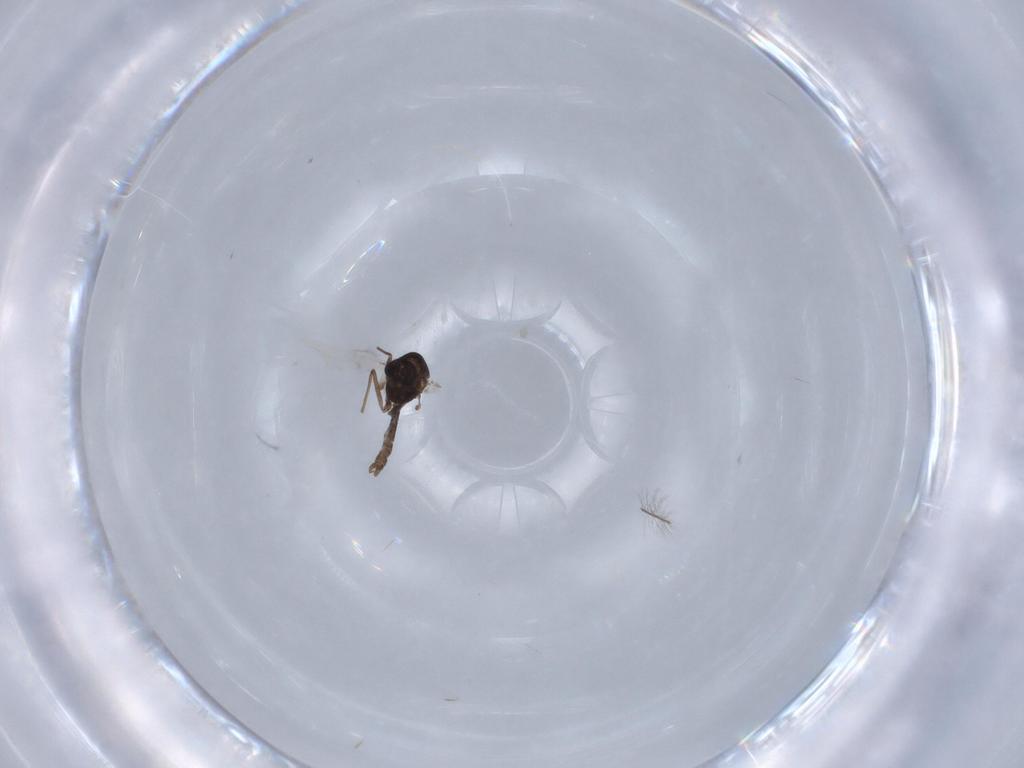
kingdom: Animalia
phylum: Arthropoda
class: Insecta
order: Diptera
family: Chironomidae
